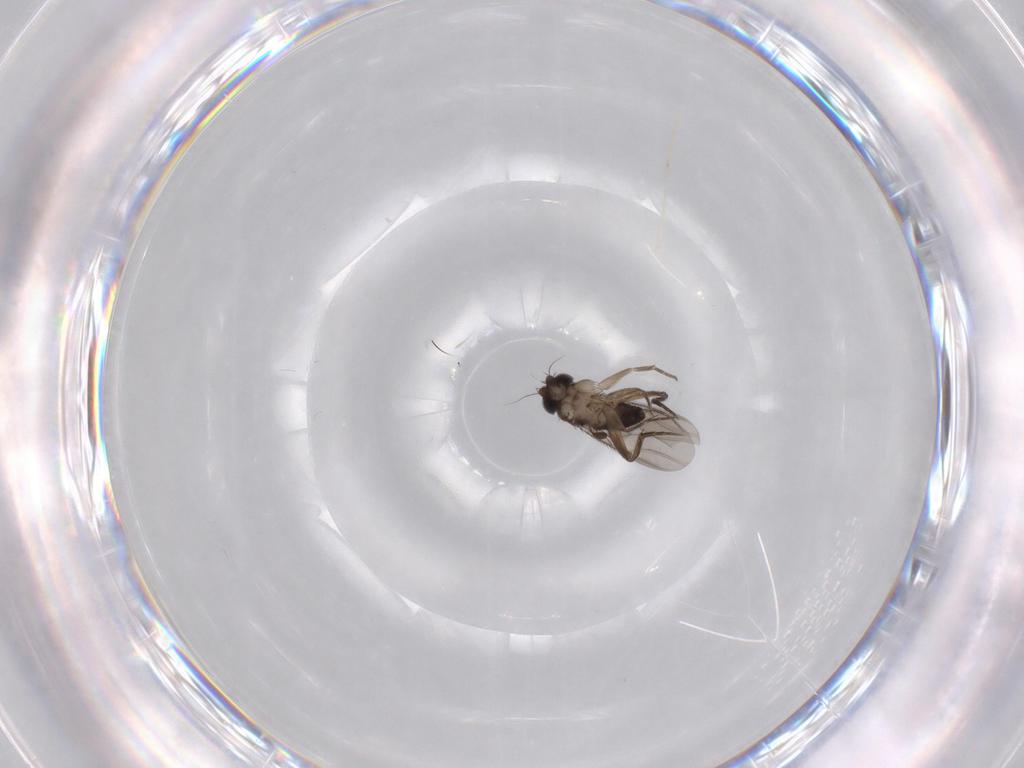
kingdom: Animalia
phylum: Arthropoda
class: Insecta
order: Diptera
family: Phoridae
